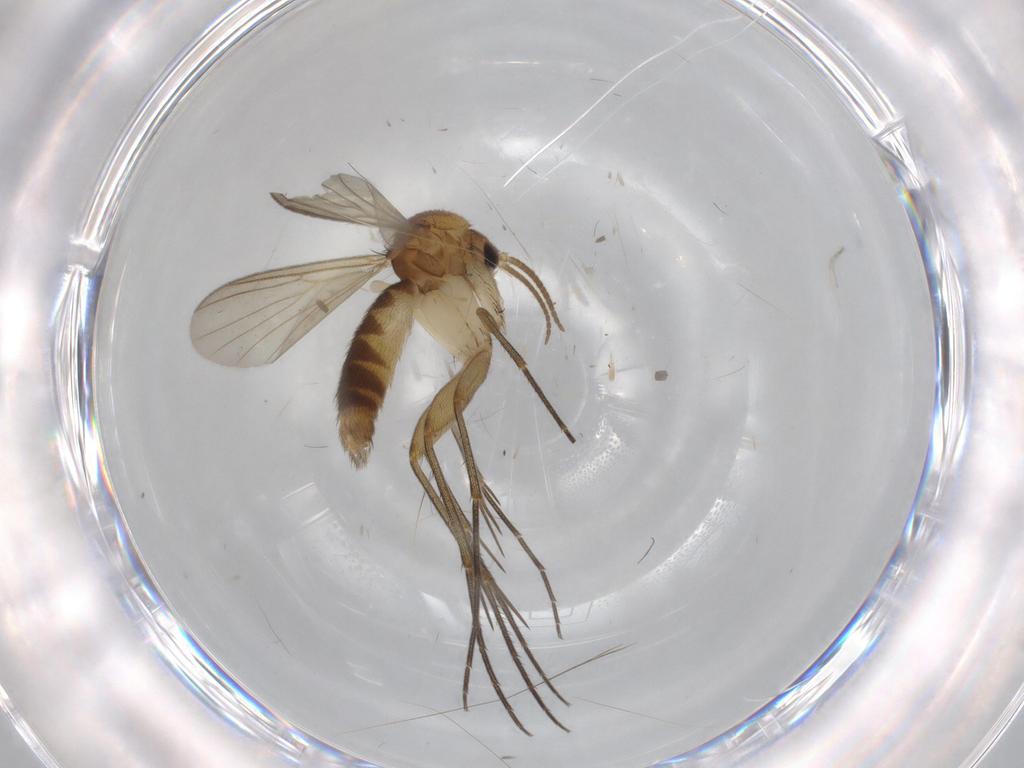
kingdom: Animalia
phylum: Arthropoda
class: Insecta
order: Diptera
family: Mycetophilidae
